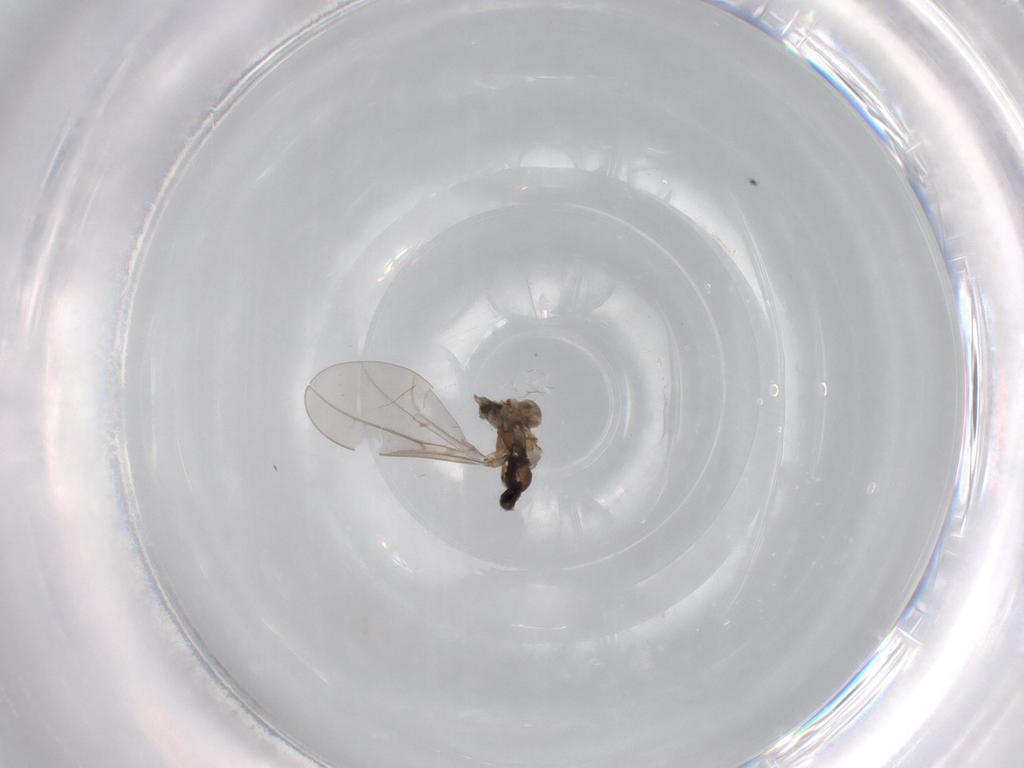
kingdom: Animalia
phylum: Arthropoda
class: Insecta
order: Diptera
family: Cecidomyiidae
